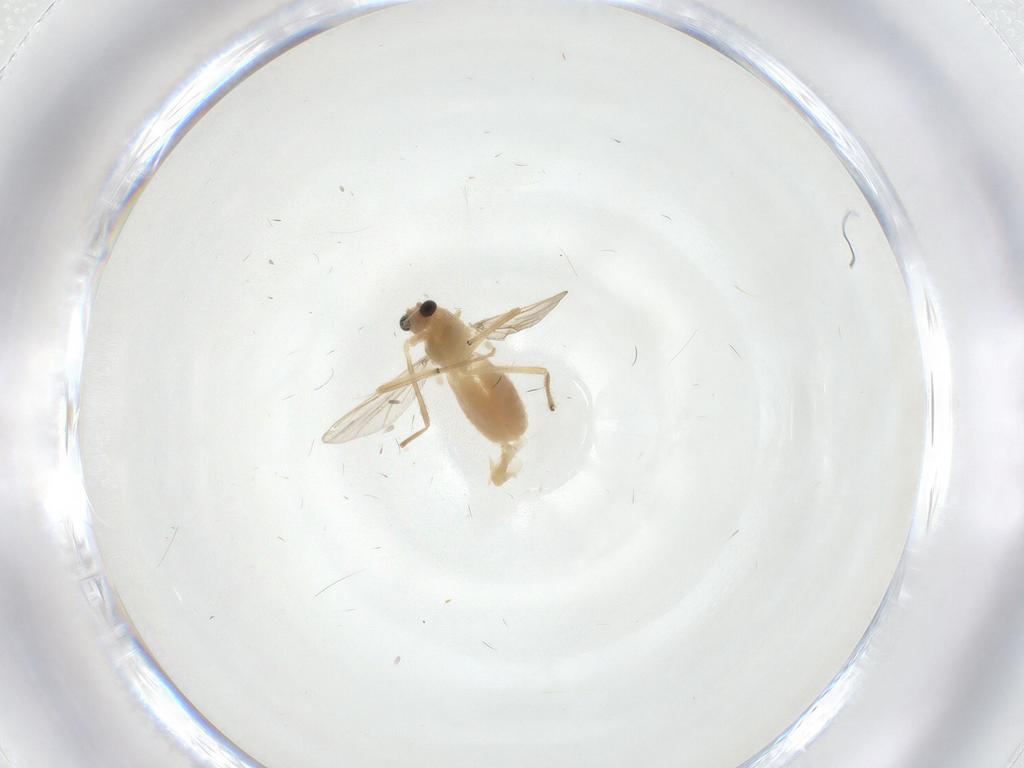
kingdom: Animalia
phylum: Arthropoda
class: Insecta
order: Diptera
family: Chironomidae
